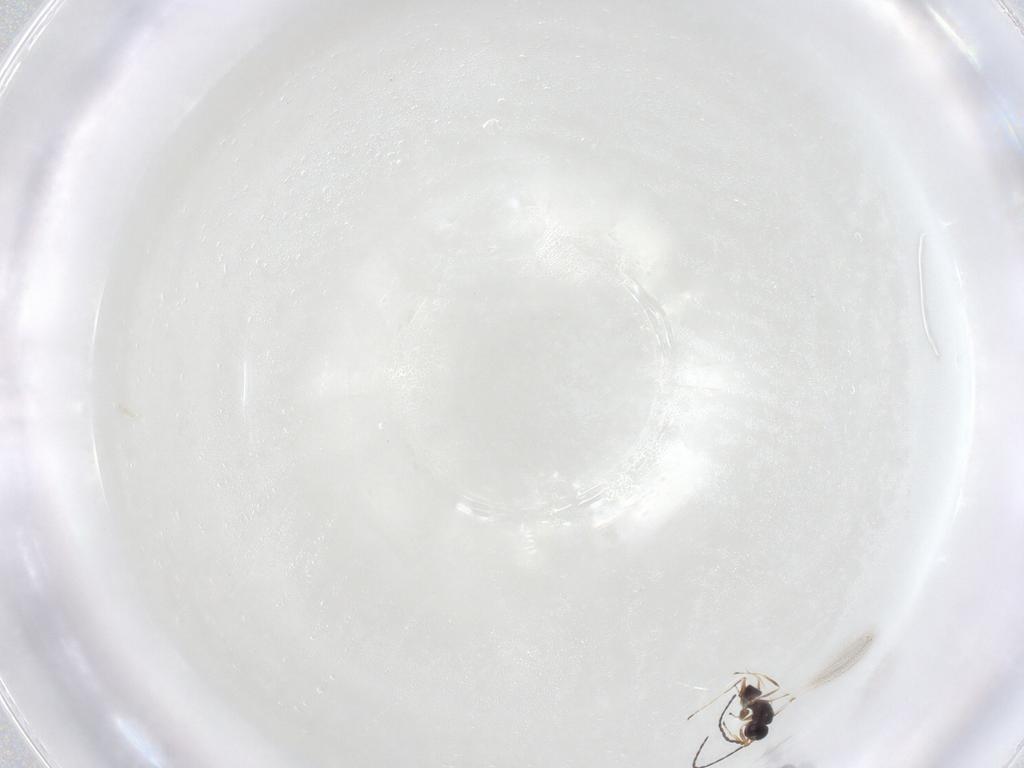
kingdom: Animalia
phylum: Arthropoda
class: Insecta
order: Hymenoptera
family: Mymaridae
